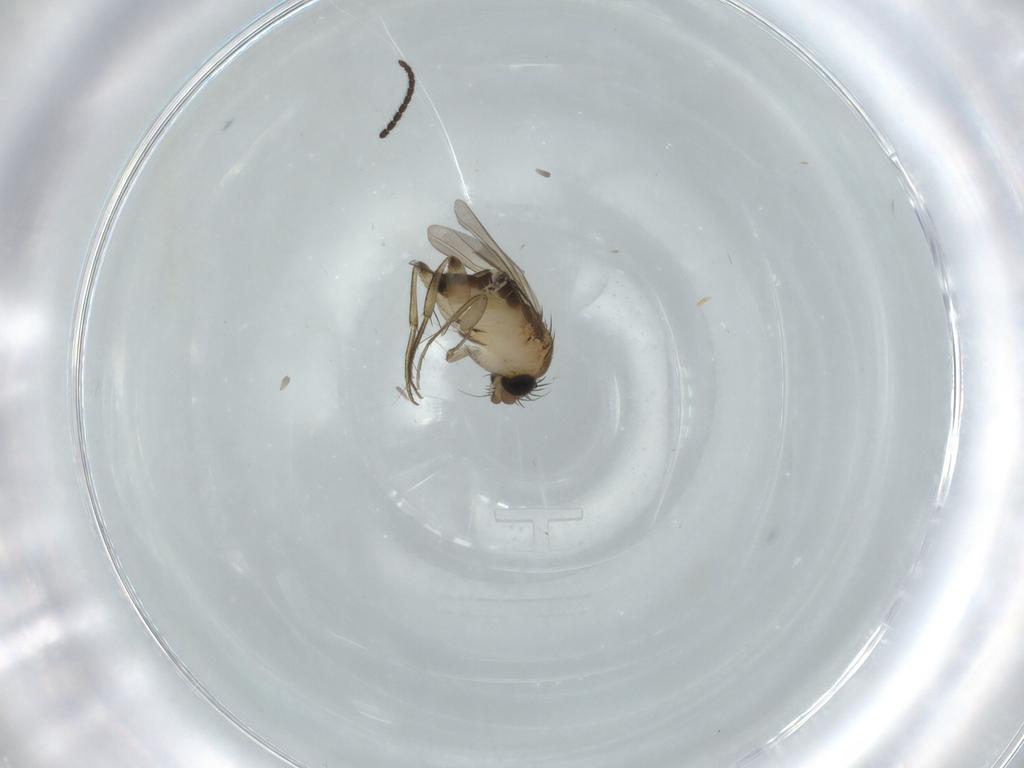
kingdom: Animalia
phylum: Arthropoda
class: Insecta
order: Diptera
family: Phoridae
